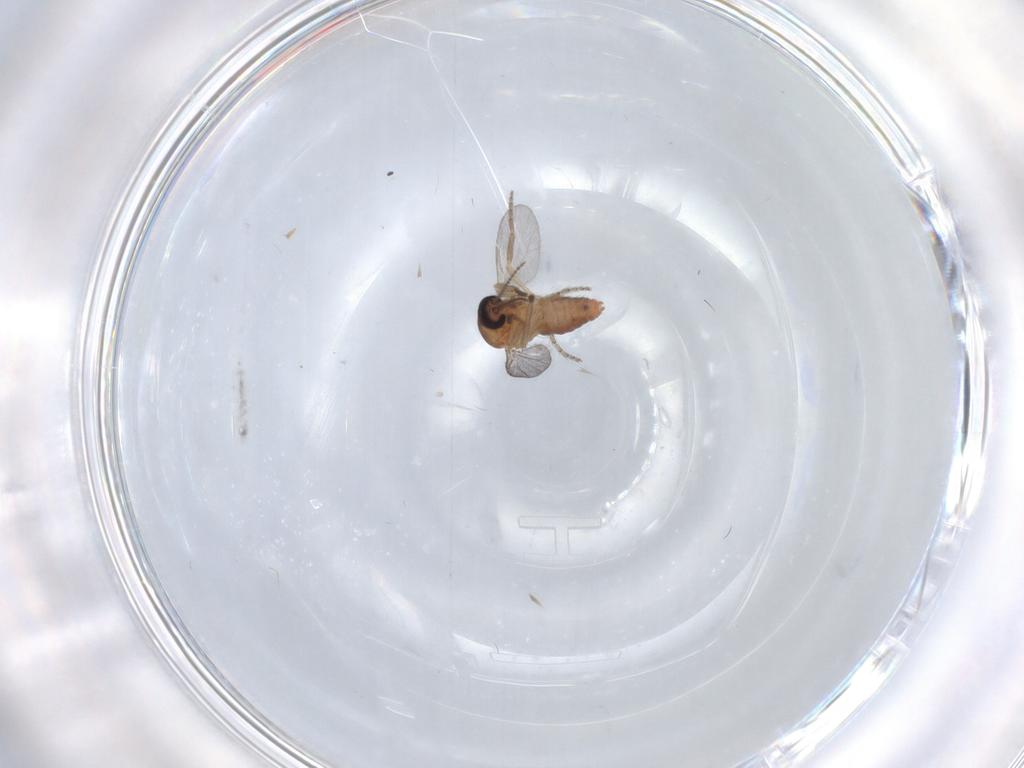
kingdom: Animalia
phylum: Arthropoda
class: Insecta
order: Diptera
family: Ceratopogonidae
